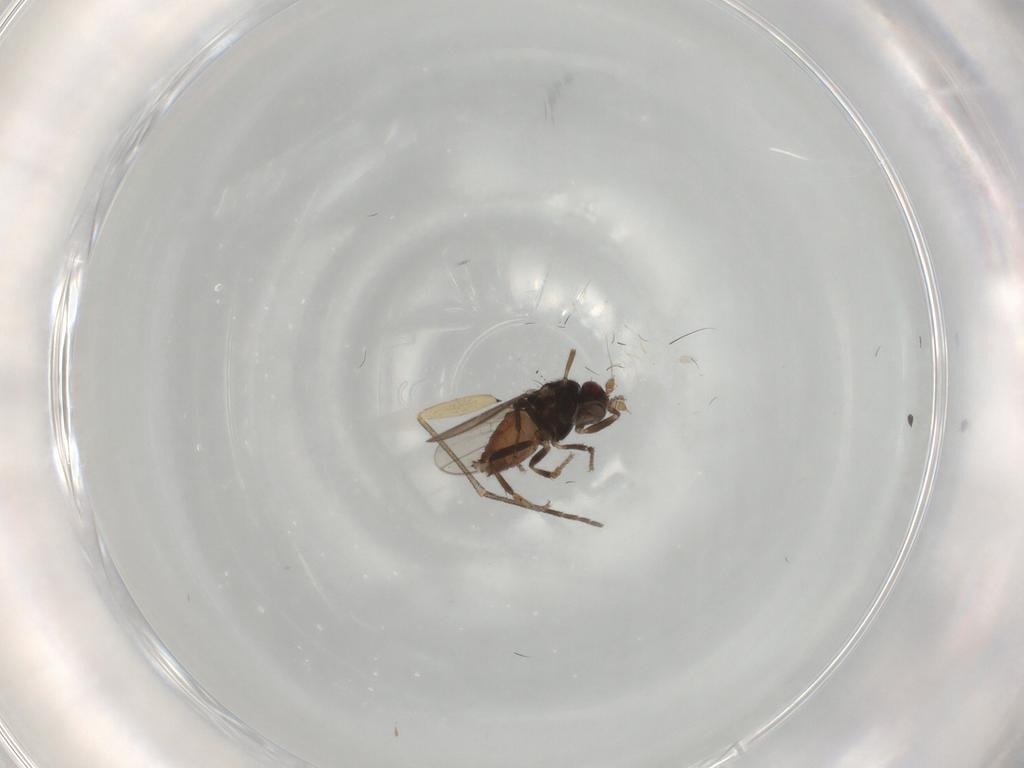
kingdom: Animalia
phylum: Arthropoda
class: Insecta
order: Diptera
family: Sphaeroceridae
